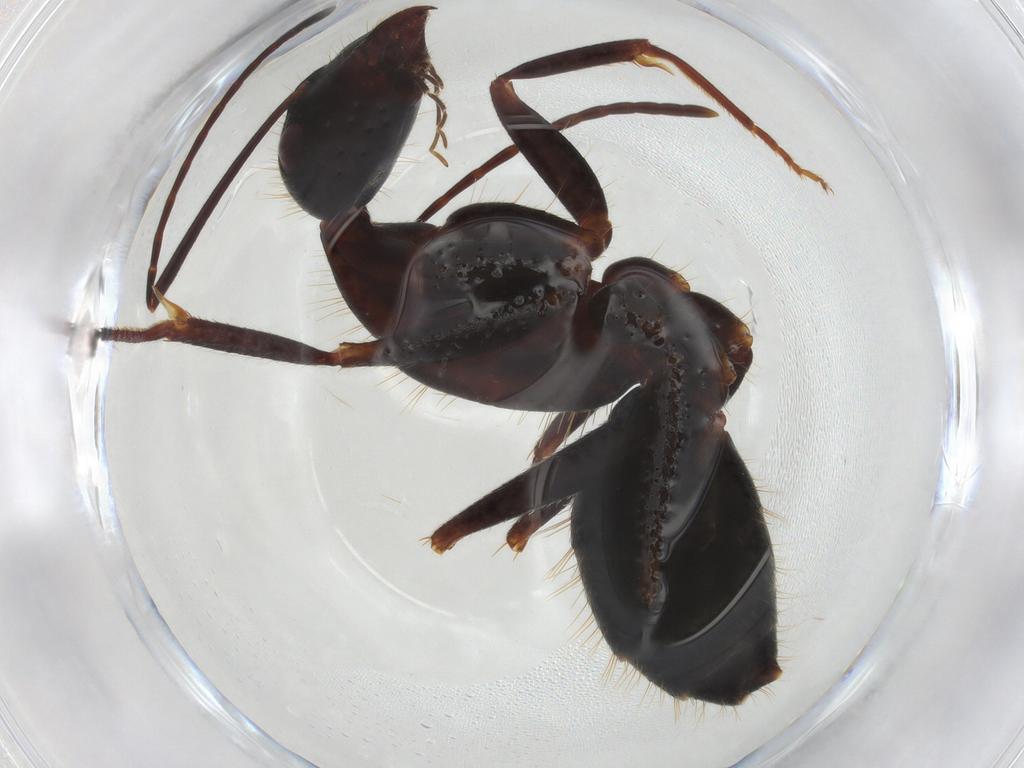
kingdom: Animalia
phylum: Arthropoda
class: Insecta
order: Hymenoptera
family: Formicidae
